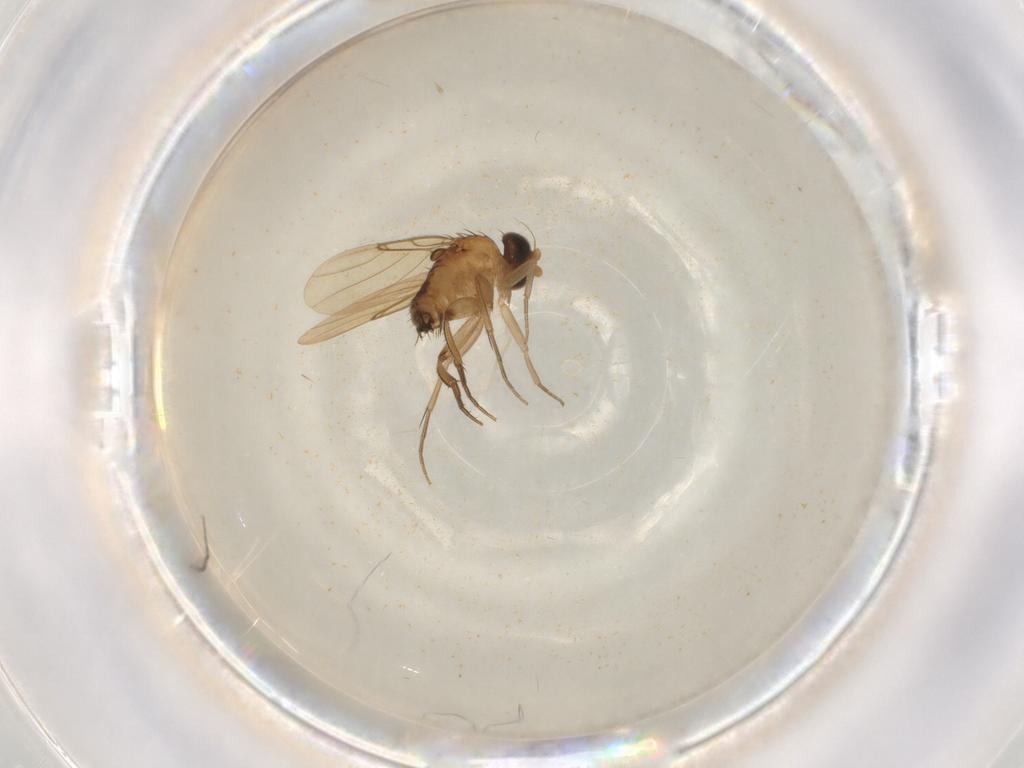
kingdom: Animalia
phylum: Arthropoda
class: Insecta
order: Diptera
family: Phoridae
